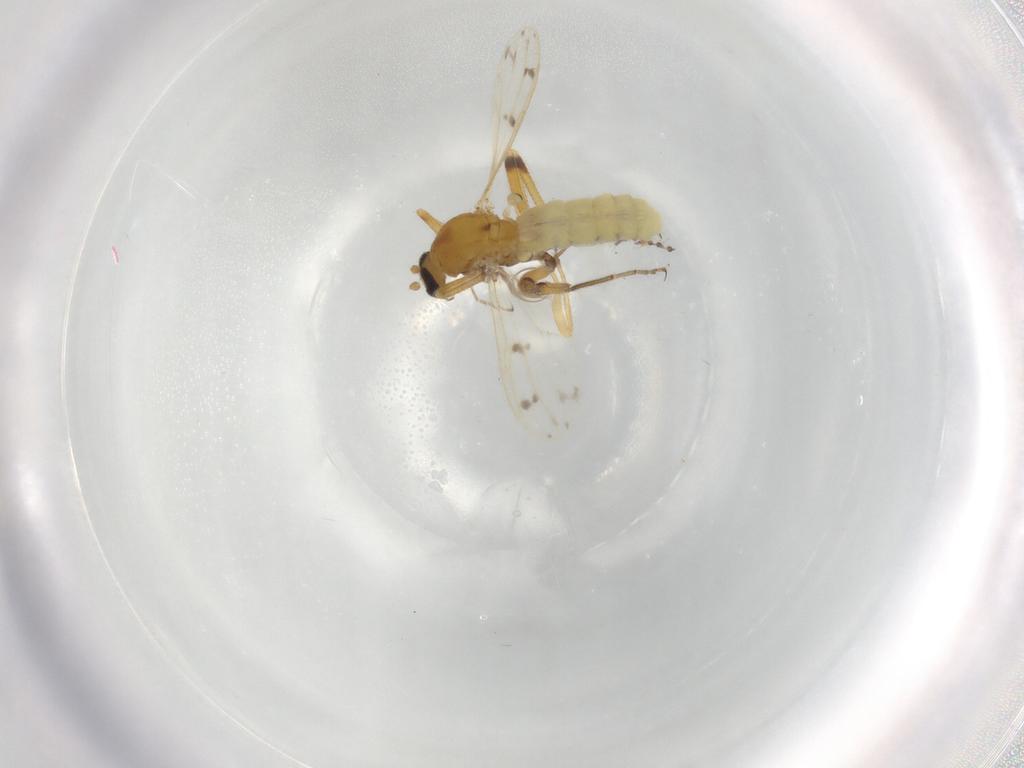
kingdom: Animalia
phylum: Arthropoda
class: Insecta
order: Diptera
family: Ceratopogonidae
